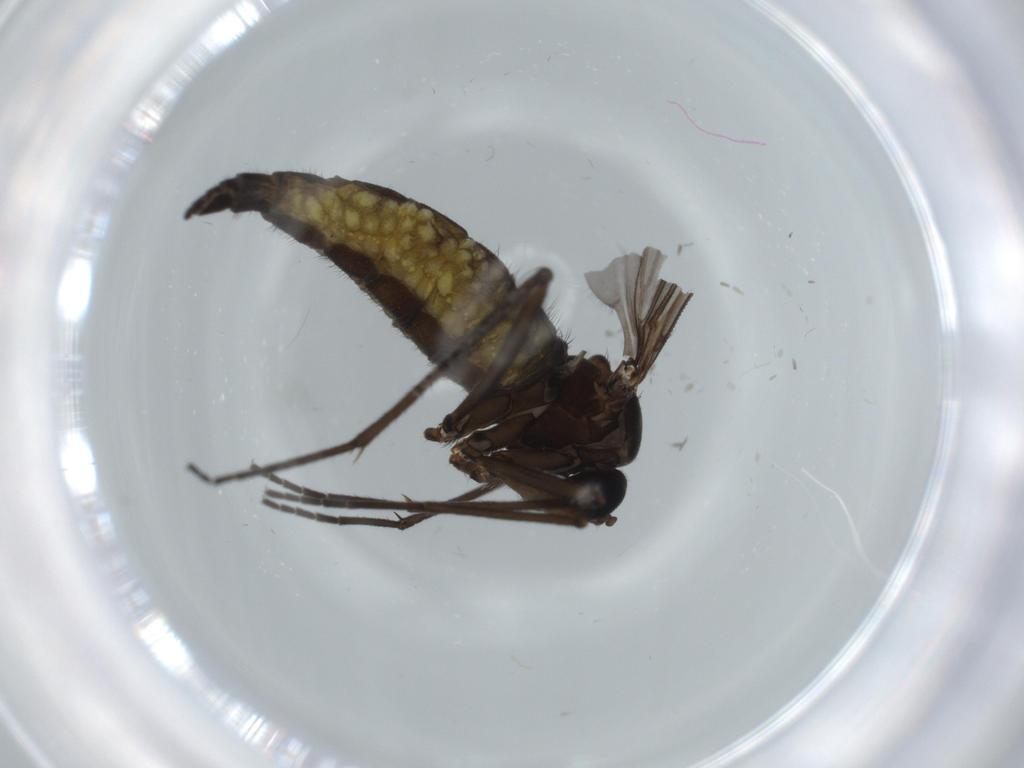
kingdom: Animalia
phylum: Arthropoda
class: Insecta
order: Diptera
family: Sciaridae
